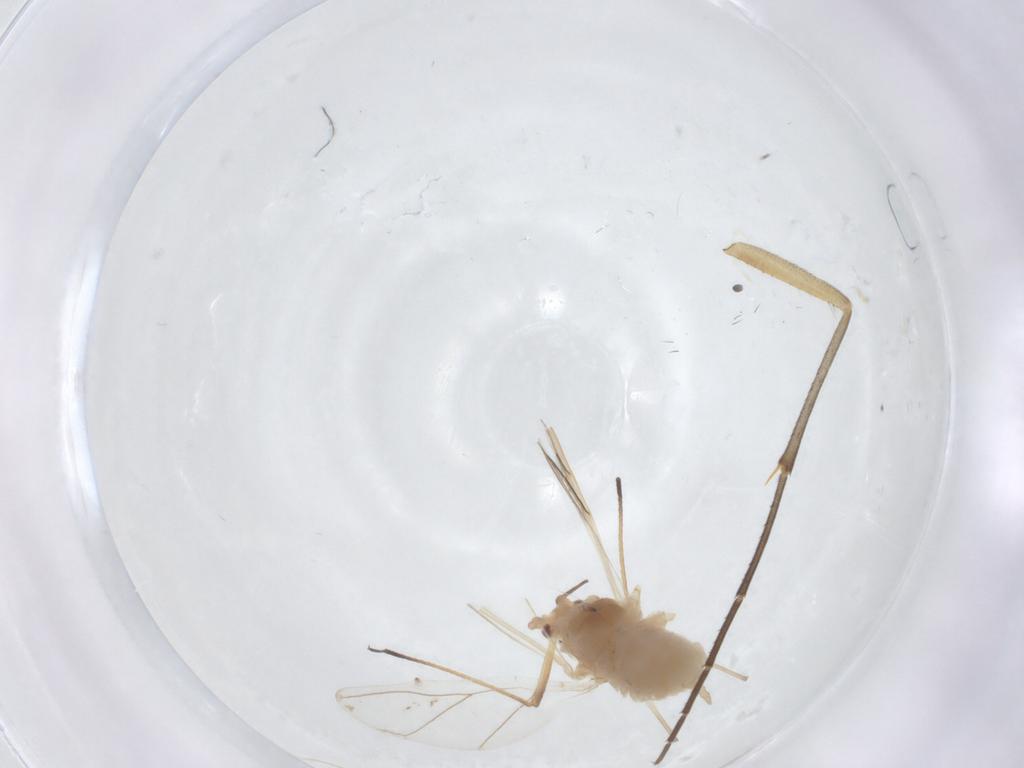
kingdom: Animalia
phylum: Arthropoda
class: Insecta
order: Hemiptera
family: Aphididae
